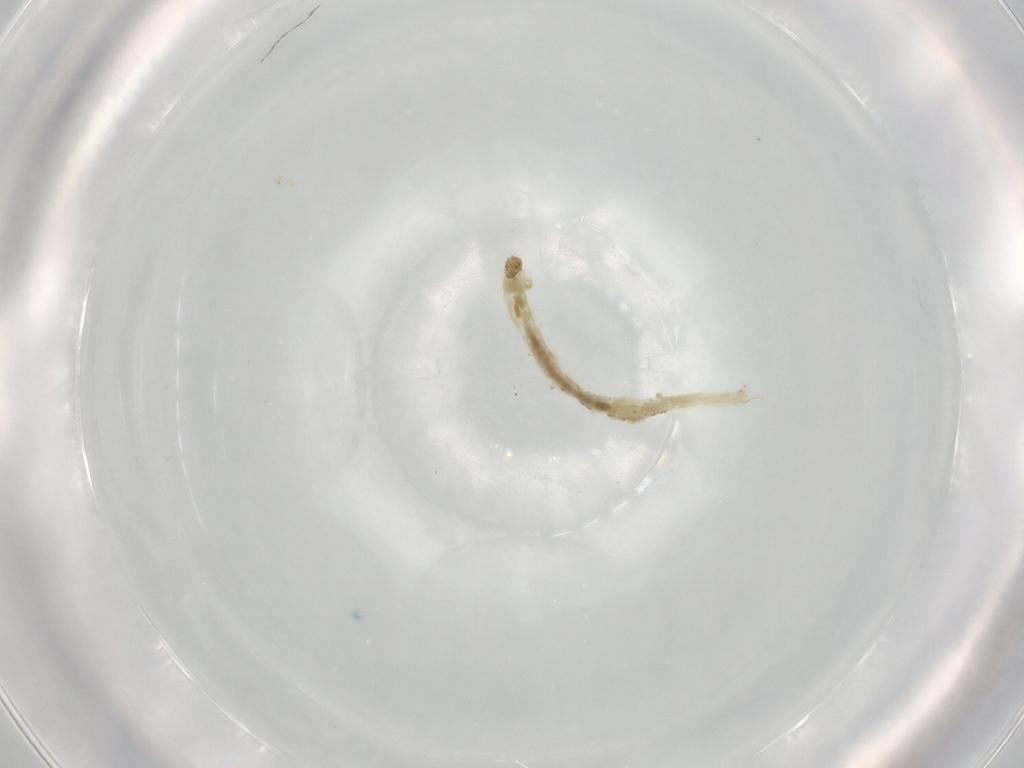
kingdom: Animalia
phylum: Arthropoda
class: Insecta
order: Diptera
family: Chironomidae
